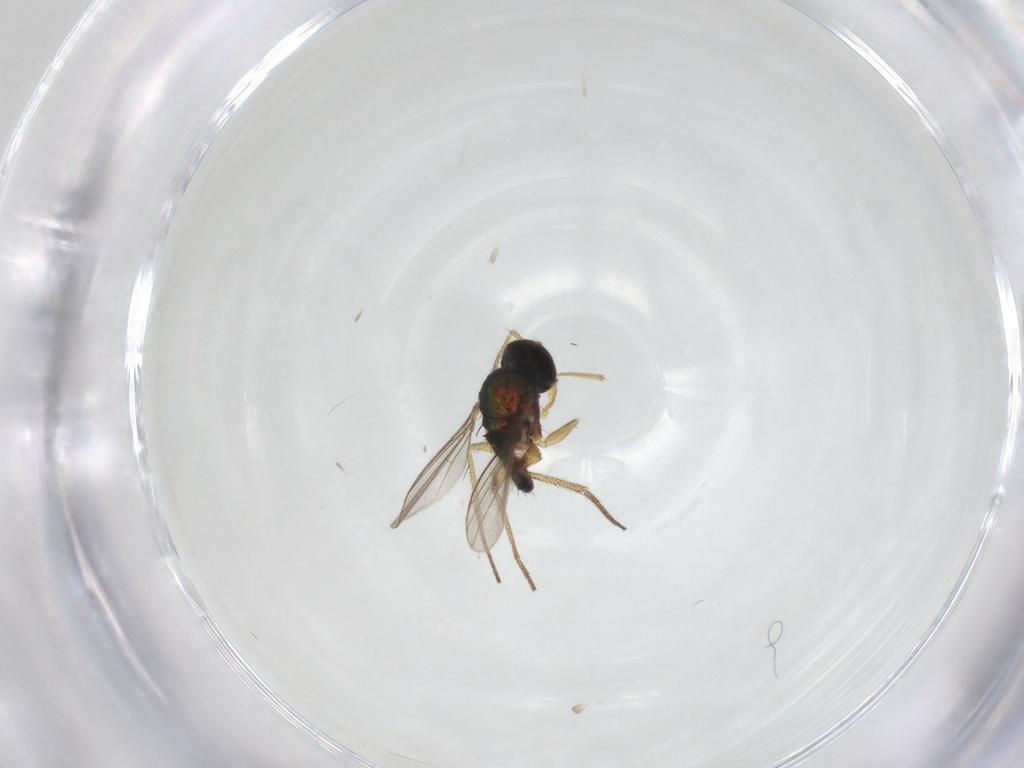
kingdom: Animalia
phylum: Arthropoda
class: Insecta
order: Diptera
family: Dolichopodidae
